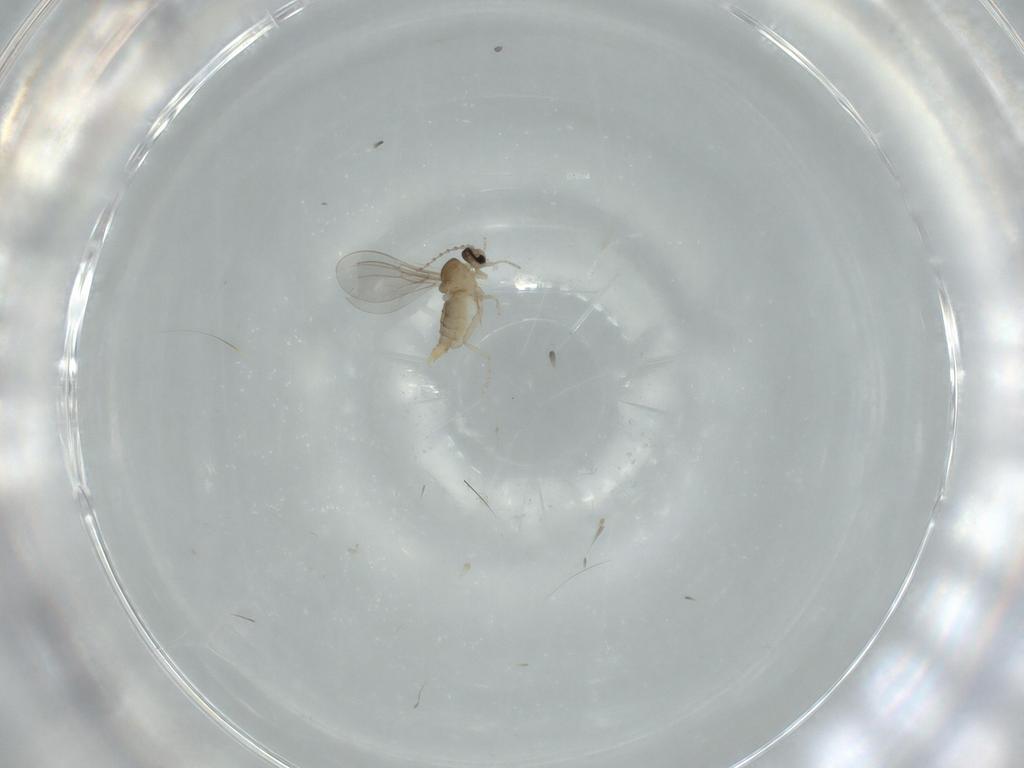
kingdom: Animalia
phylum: Arthropoda
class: Insecta
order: Diptera
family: Cecidomyiidae
